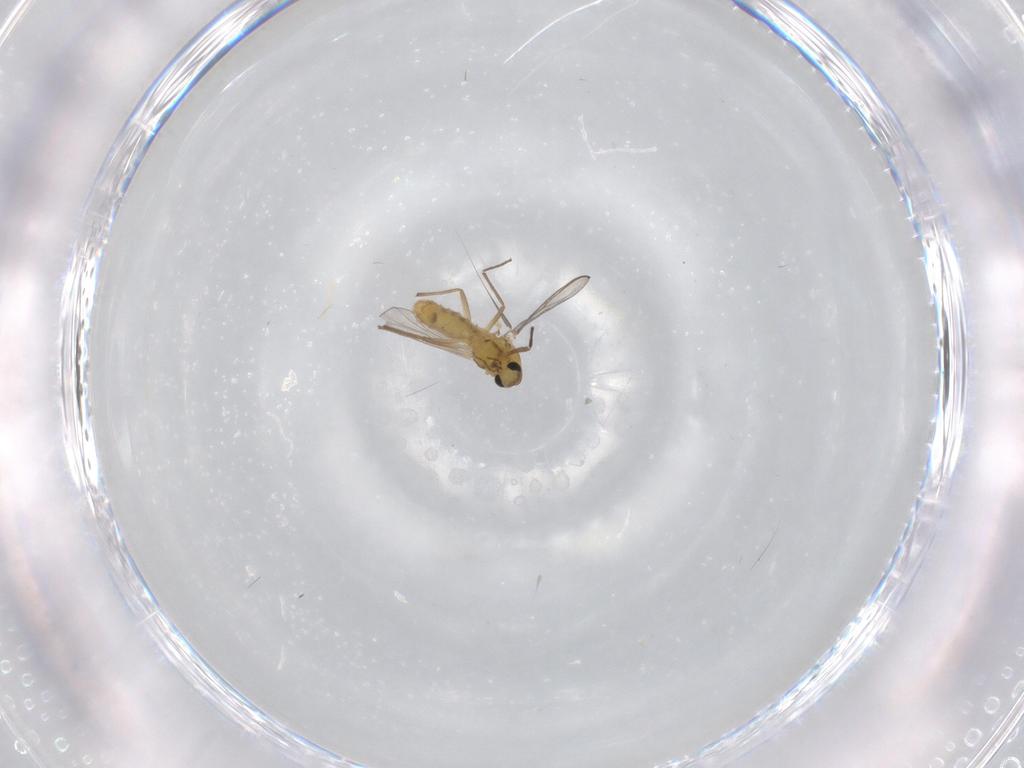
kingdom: Animalia
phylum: Arthropoda
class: Insecta
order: Diptera
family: Chironomidae
